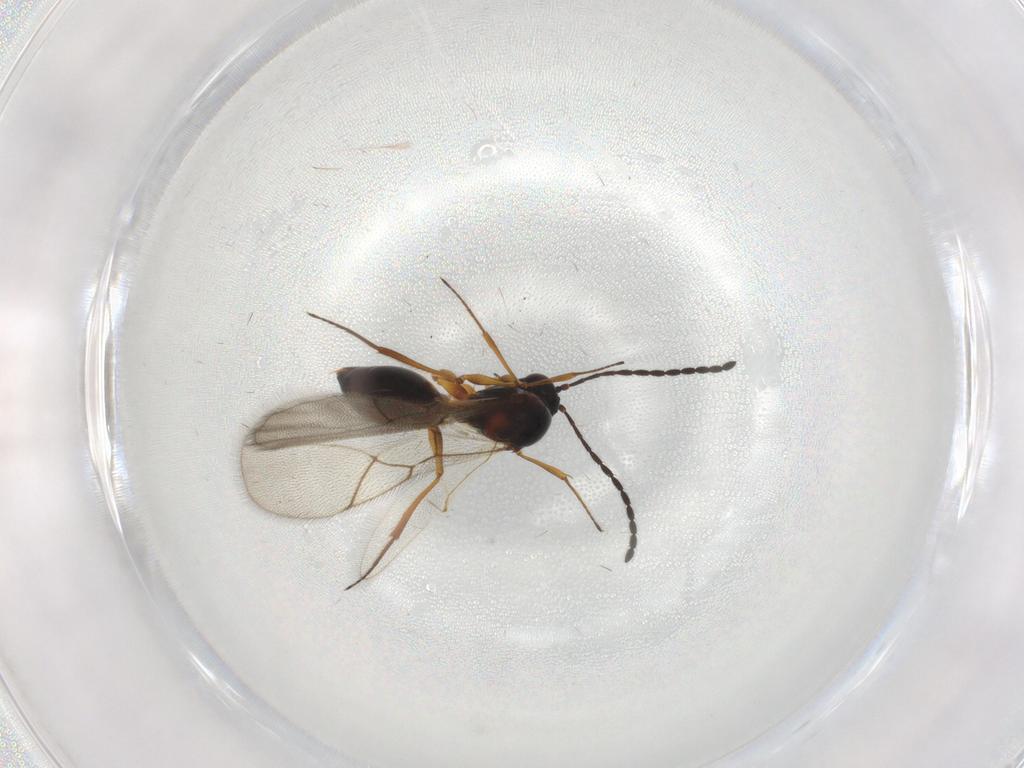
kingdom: Animalia
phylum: Arthropoda
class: Insecta
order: Hymenoptera
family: Figitidae
